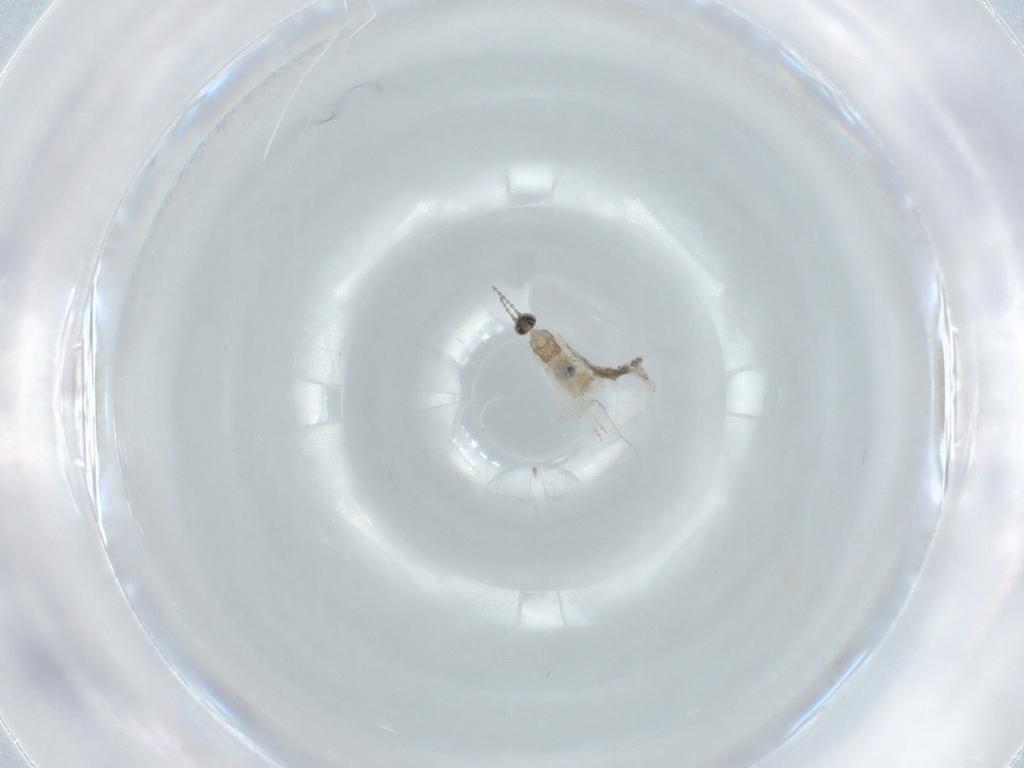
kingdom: Animalia
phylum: Arthropoda
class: Insecta
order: Diptera
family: Cecidomyiidae
